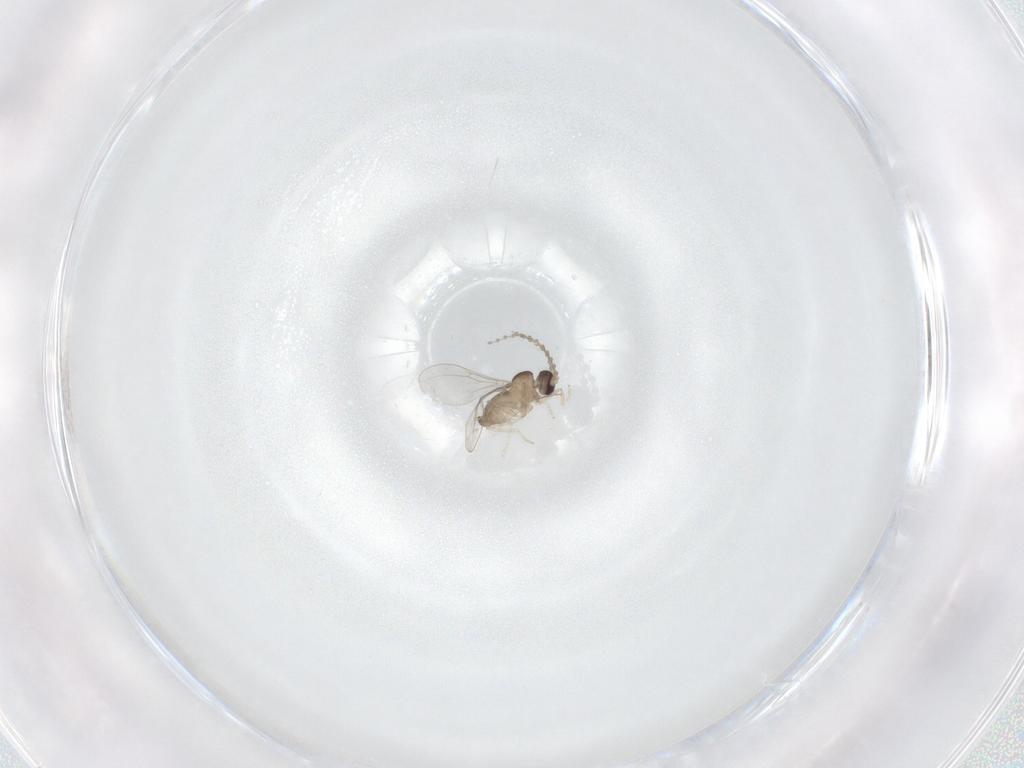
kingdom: Animalia
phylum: Arthropoda
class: Insecta
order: Diptera
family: Cecidomyiidae
